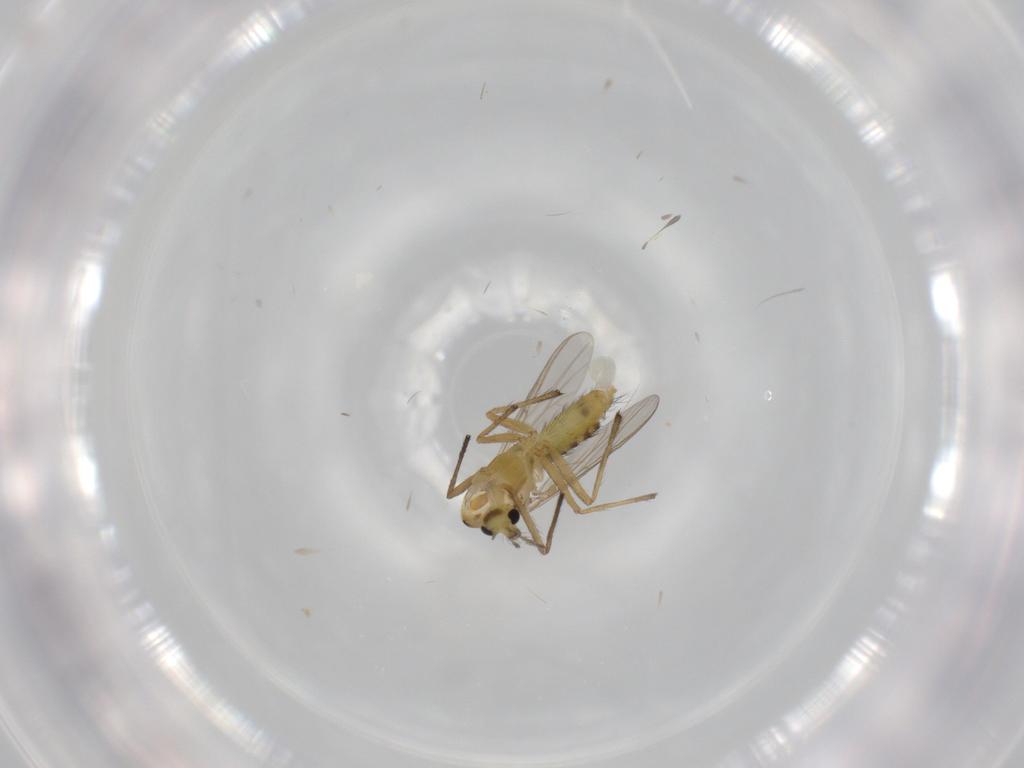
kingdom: Animalia
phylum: Arthropoda
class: Insecta
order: Diptera
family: Chironomidae
